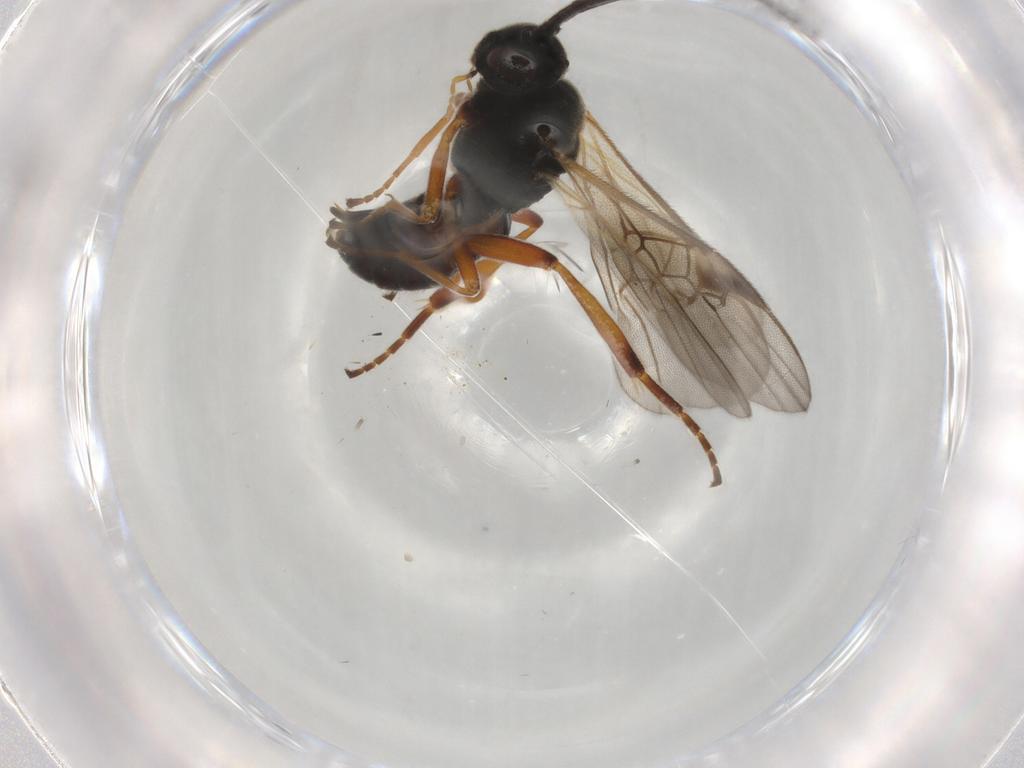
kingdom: Animalia
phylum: Arthropoda
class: Insecta
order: Hymenoptera
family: Braconidae
